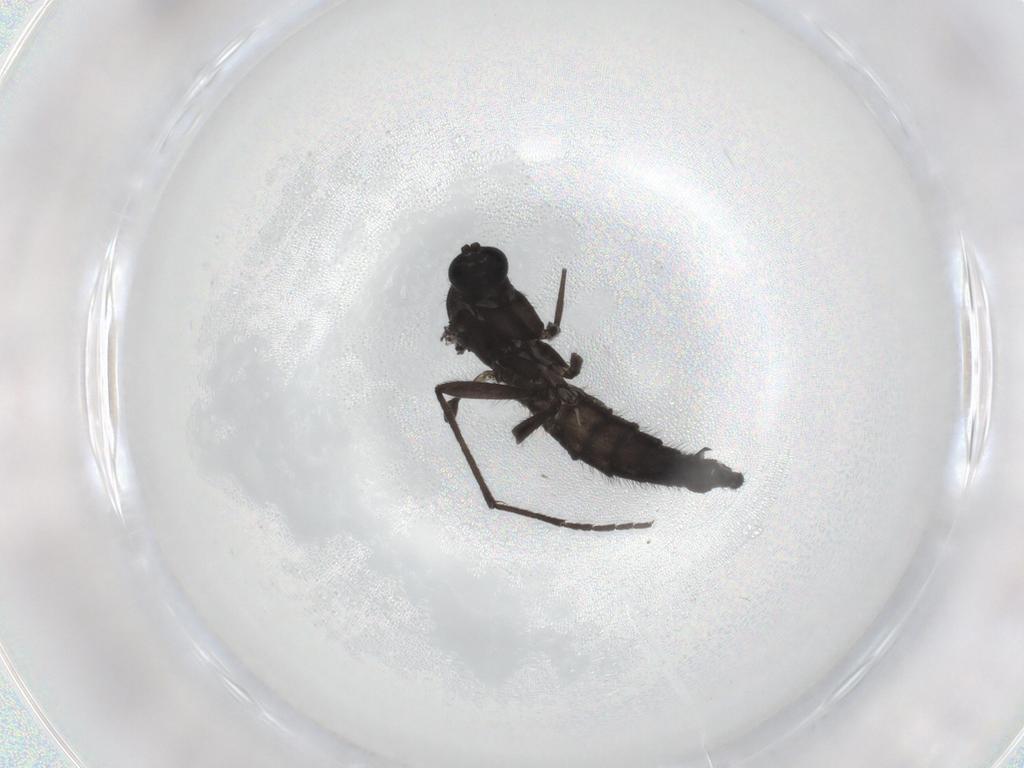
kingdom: Animalia
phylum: Arthropoda
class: Insecta
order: Diptera
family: Sciaridae
